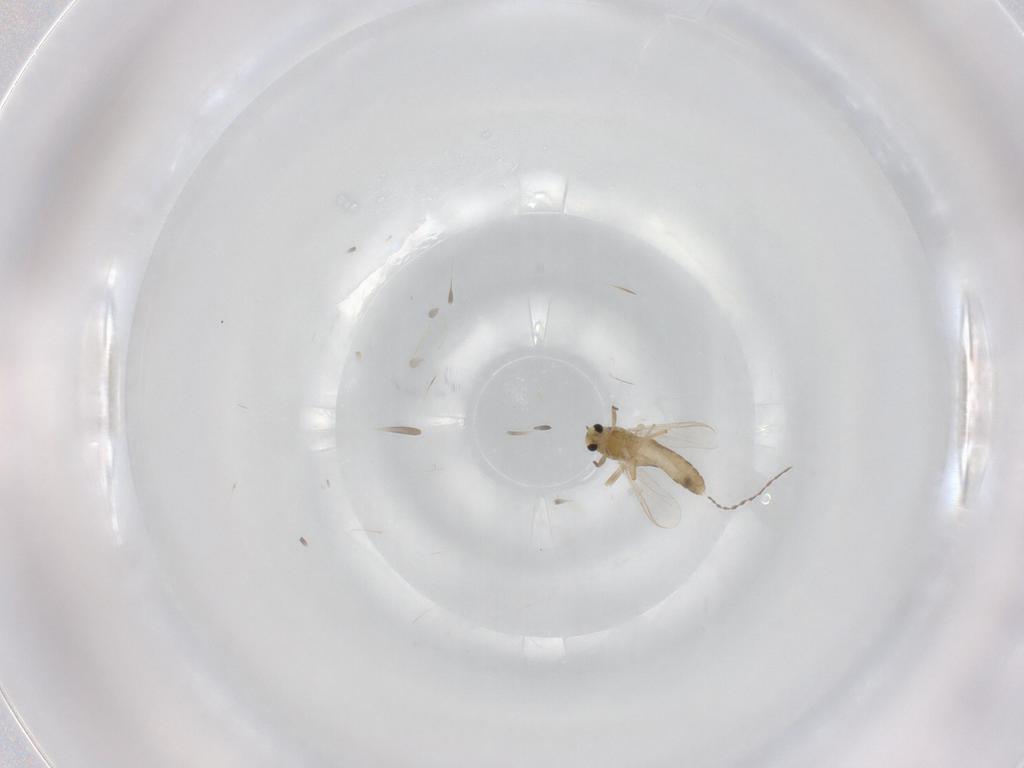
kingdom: Animalia
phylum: Arthropoda
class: Insecta
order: Diptera
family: Chironomidae
